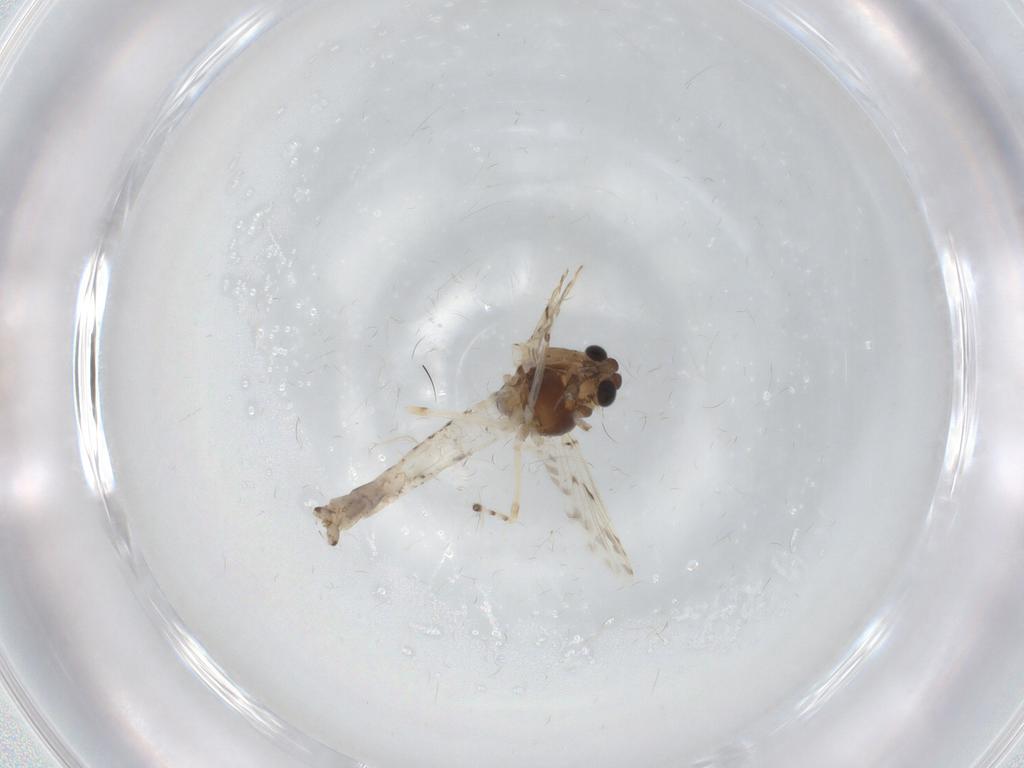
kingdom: Animalia
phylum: Arthropoda
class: Insecta
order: Diptera
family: Chironomidae
